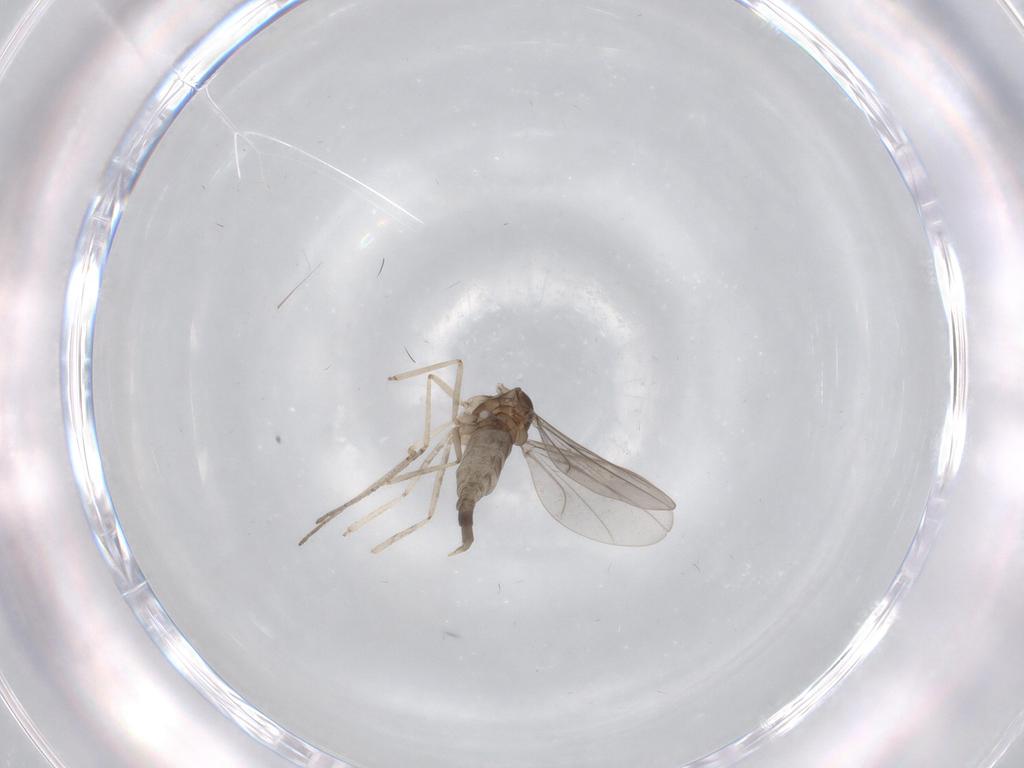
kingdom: Animalia
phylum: Arthropoda
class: Insecta
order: Diptera
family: Cecidomyiidae
